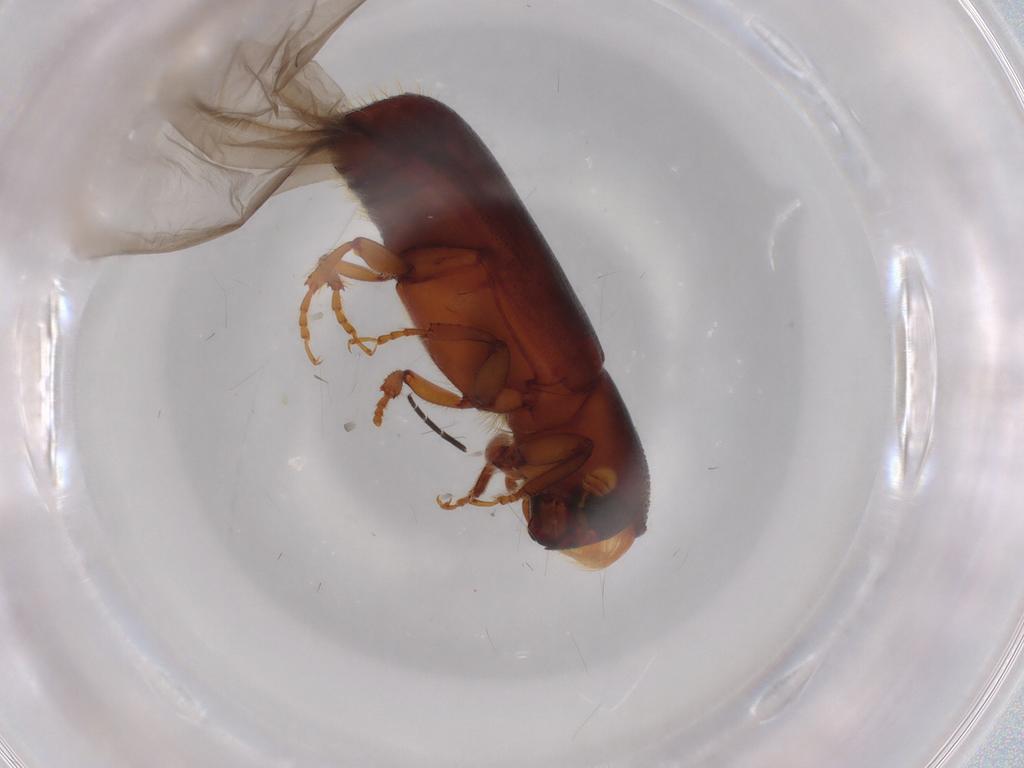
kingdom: Animalia
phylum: Arthropoda
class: Insecta
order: Coleoptera
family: Curculionidae
